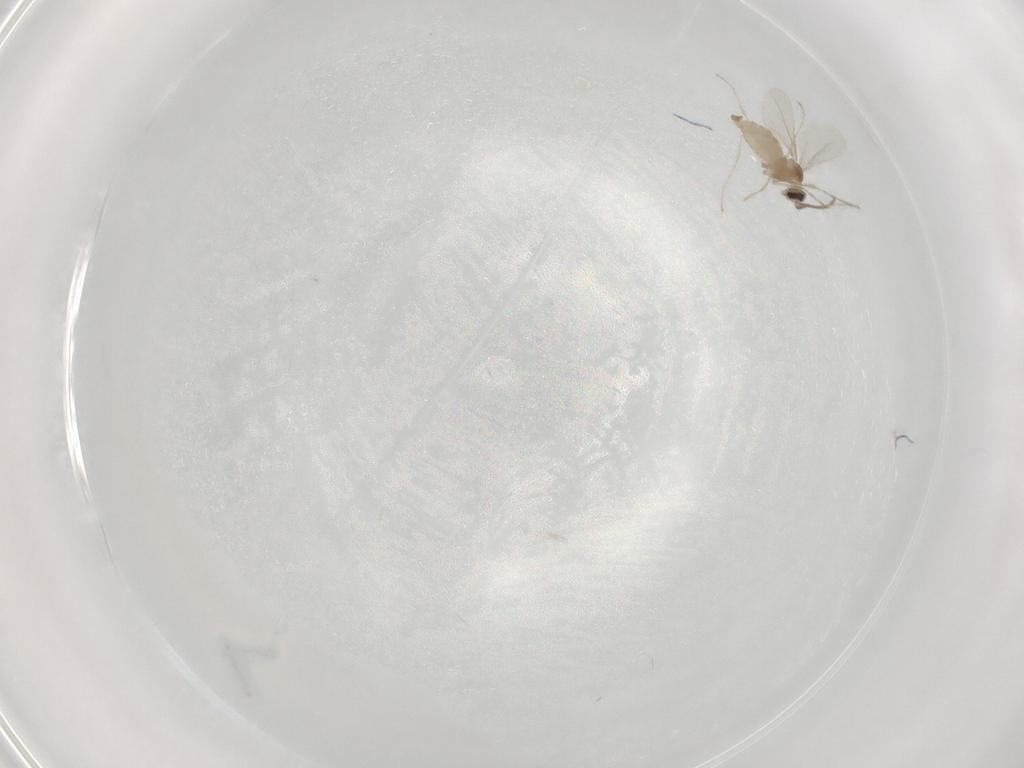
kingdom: Animalia
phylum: Arthropoda
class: Insecta
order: Diptera
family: Cecidomyiidae
